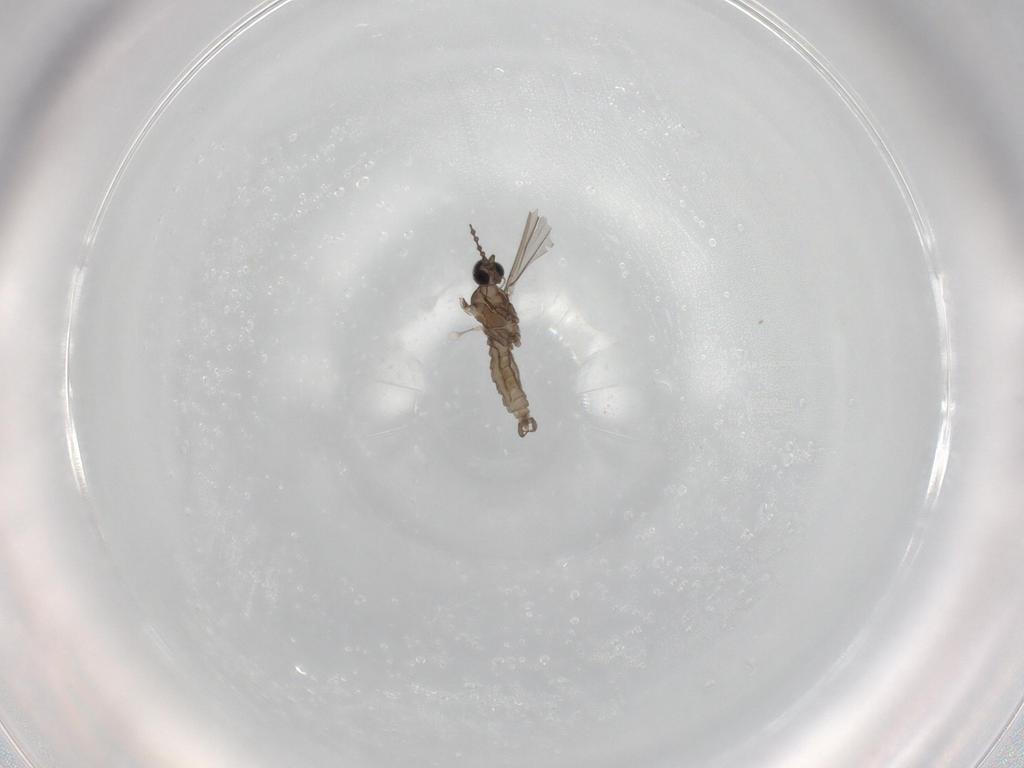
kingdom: Animalia
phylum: Arthropoda
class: Insecta
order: Diptera
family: Cecidomyiidae
